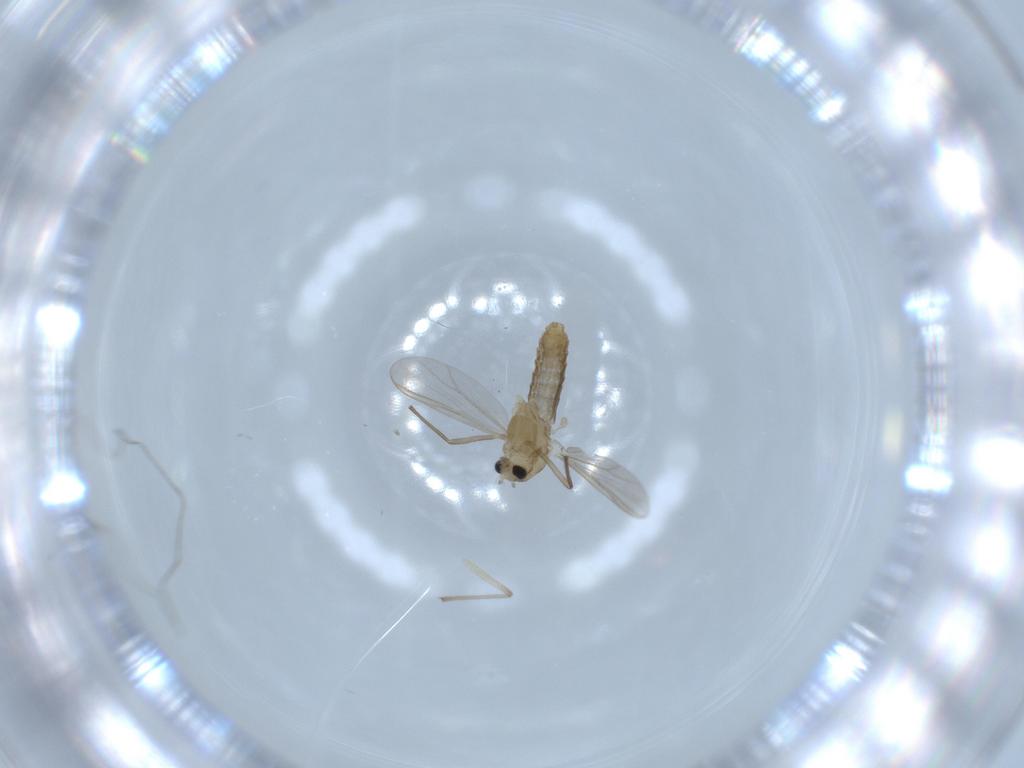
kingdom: Animalia
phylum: Arthropoda
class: Insecta
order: Diptera
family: Chironomidae
